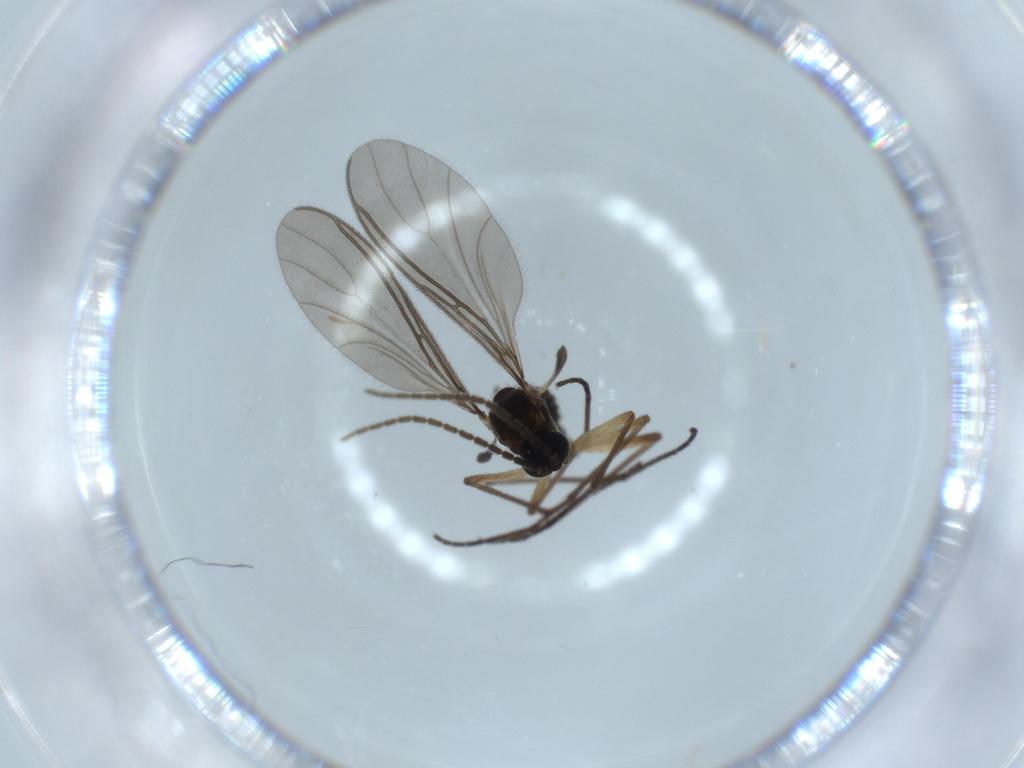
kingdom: Animalia
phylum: Arthropoda
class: Insecta
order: Diptera
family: Sciaridae
